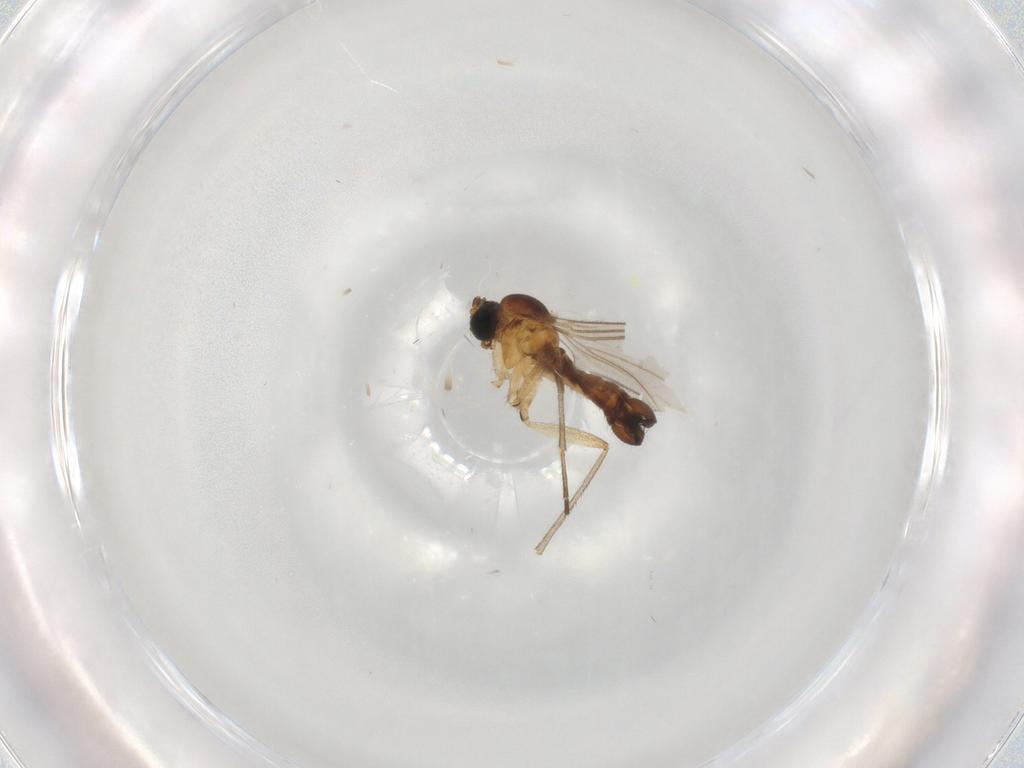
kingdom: Animalia
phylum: Arthropoda
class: Insecta
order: Diptera
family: Sciaridae
